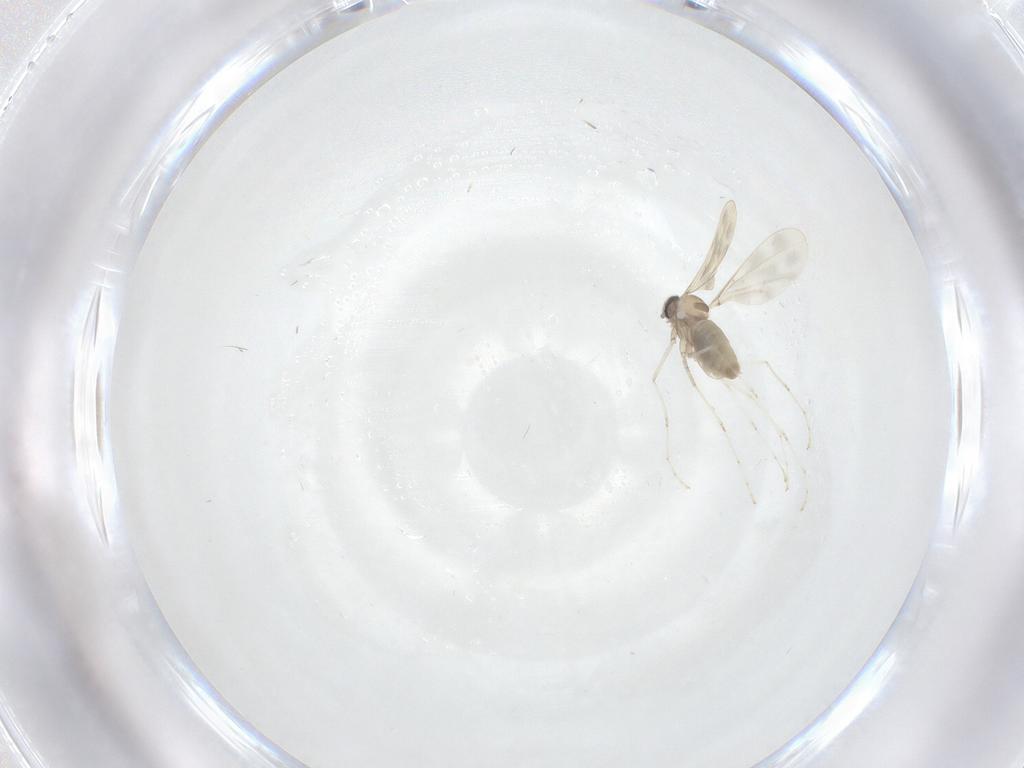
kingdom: Animalia
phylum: Arthropoda
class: Insecta
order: Diptera
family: Cecidomyiidae
